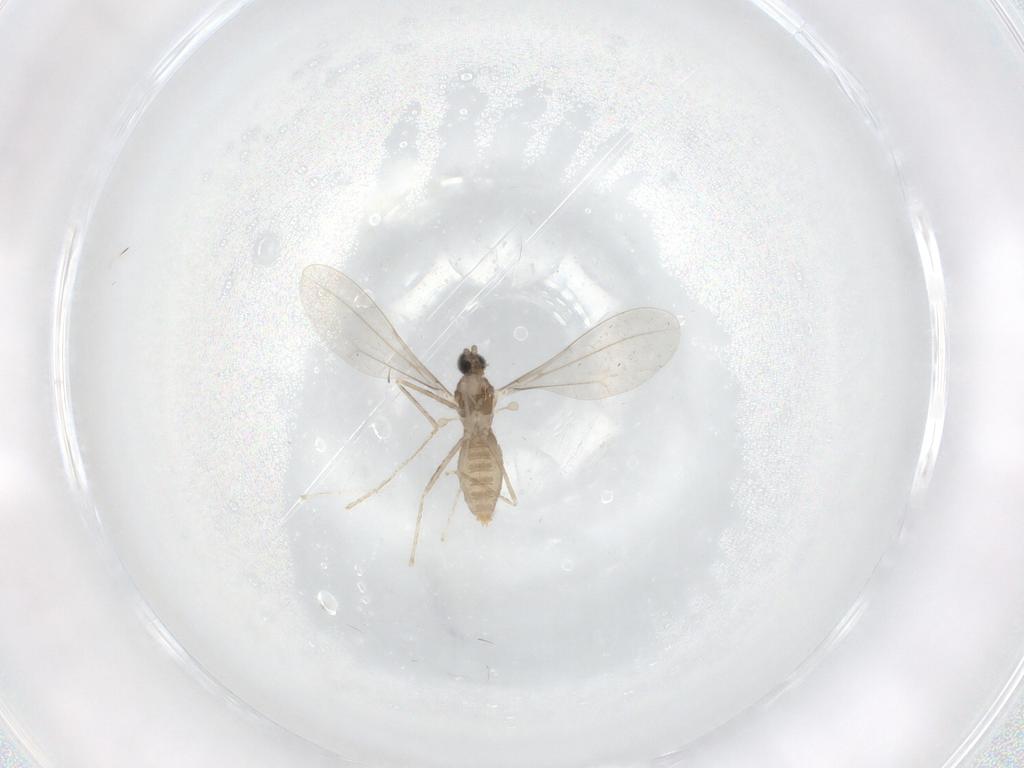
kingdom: Animalia
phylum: Arthropoda
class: Insecta
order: Diptera
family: Cecidomyiidae
